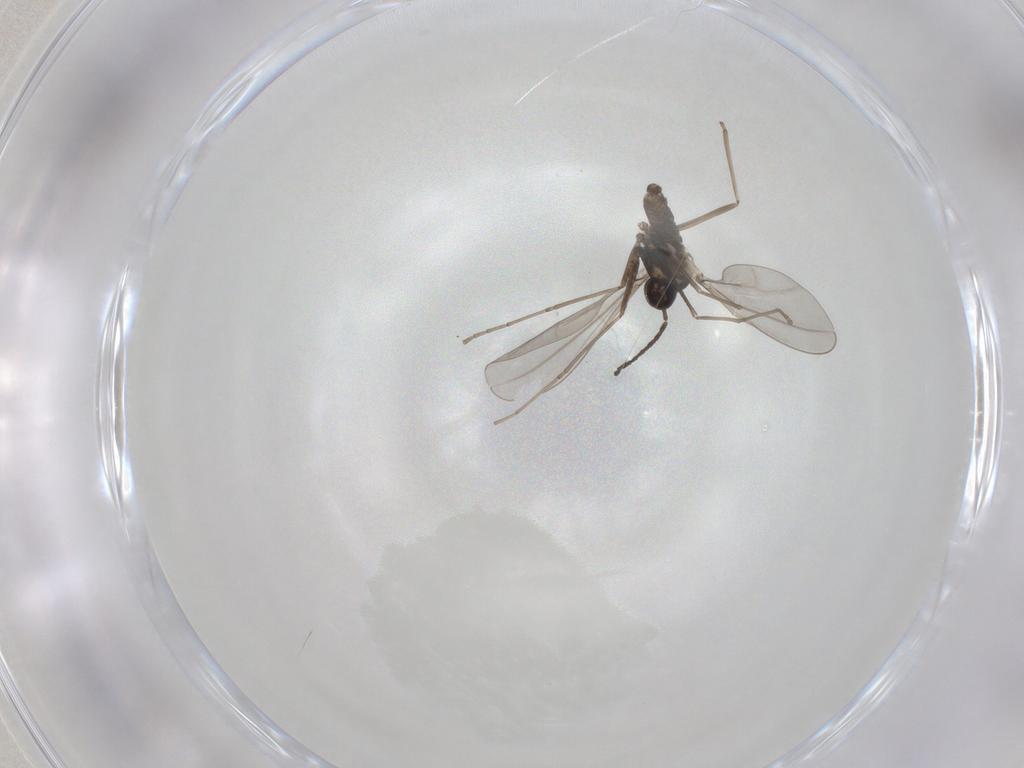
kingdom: Animalia
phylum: Arthropoda
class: Insecta
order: Diptera
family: Cecidomyiidae
